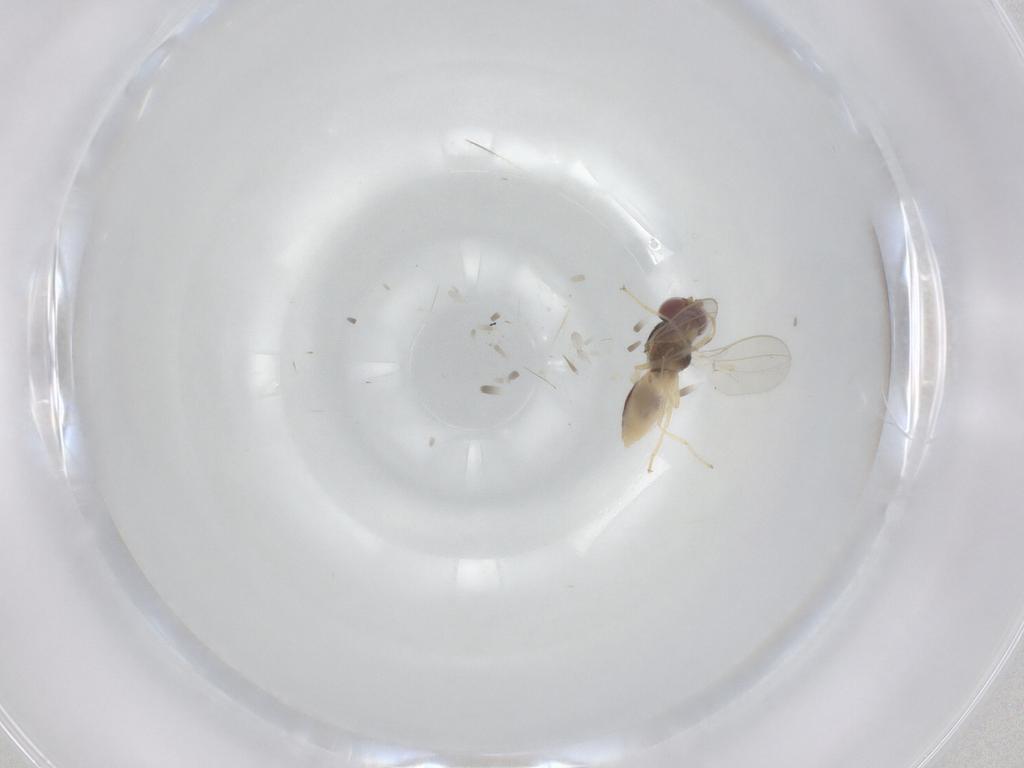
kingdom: Animalia
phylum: Arthropoda
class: Insecta
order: Diptera
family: Asteiidae
